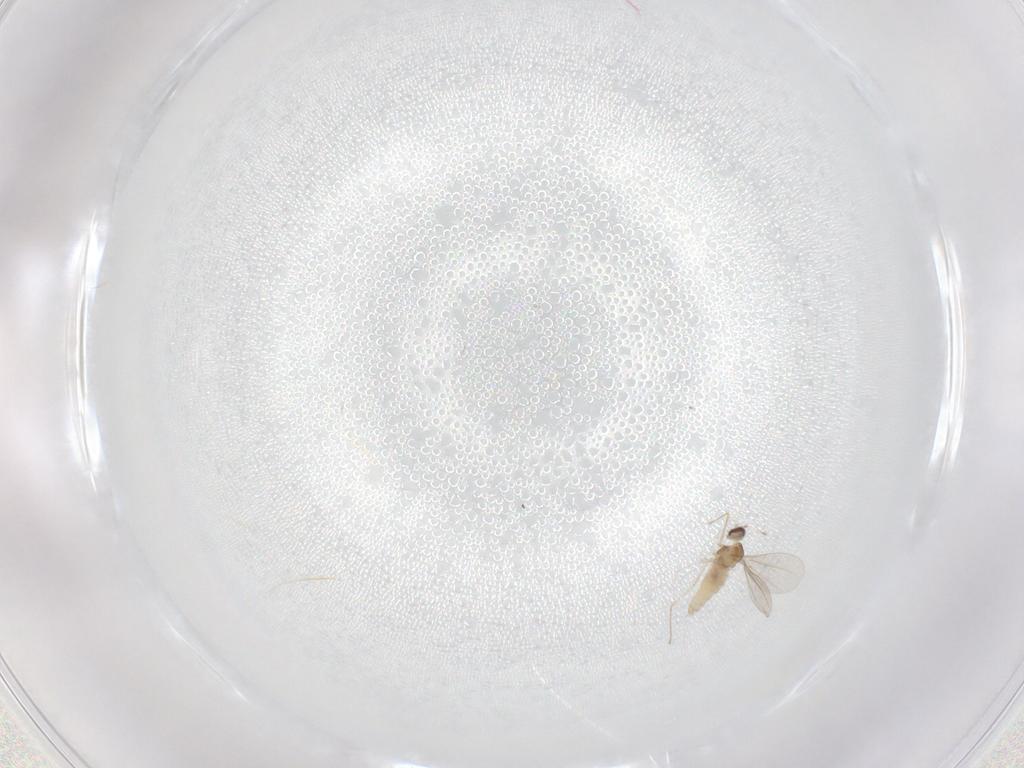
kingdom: Animalia
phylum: Arthropoda
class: Insecta
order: Diptera
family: Cecidomyiidae
